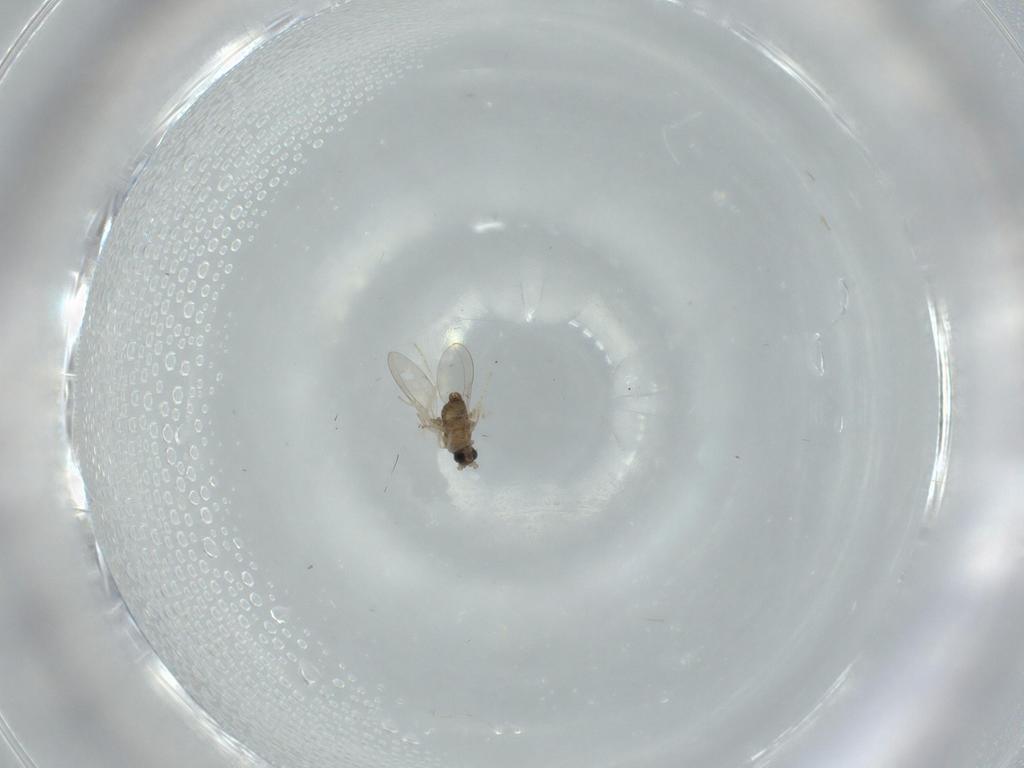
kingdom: Animalia
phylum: Arthropoda
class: Insecta
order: Diptera
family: Cecidomyiidae
